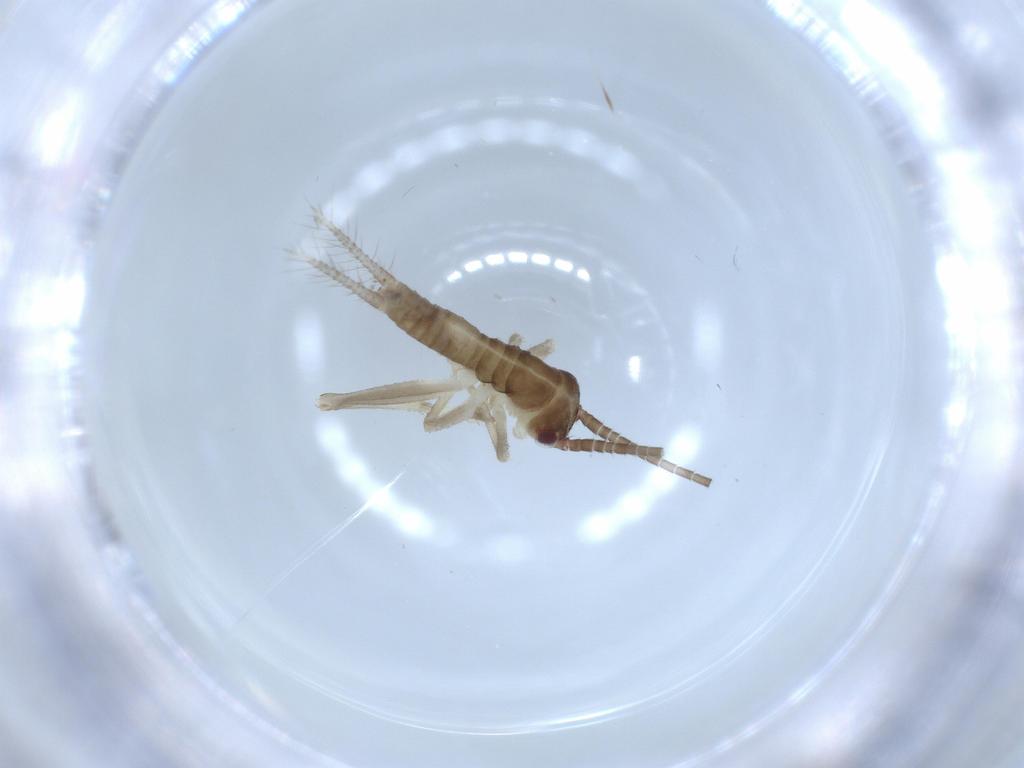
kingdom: Animalia
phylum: Arthropoda
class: Insecta
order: Orthoptera
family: Gryllidae
